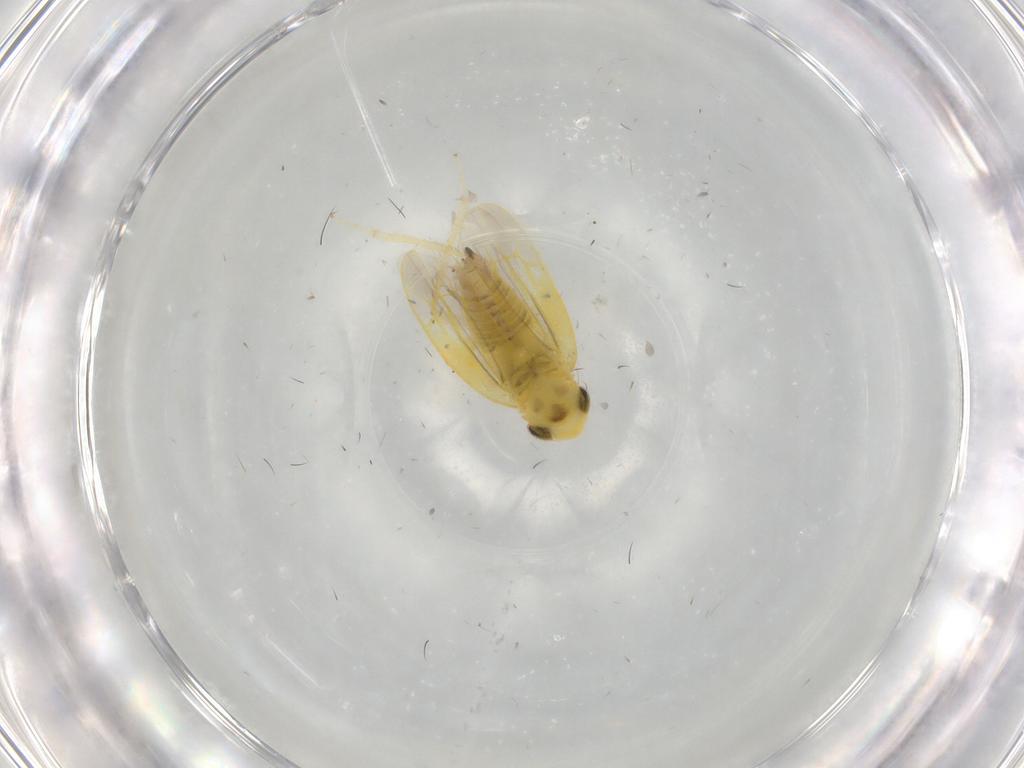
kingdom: Animalia
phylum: Arthropoda
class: Insecta
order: Hemiptera
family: Cicadellidae
